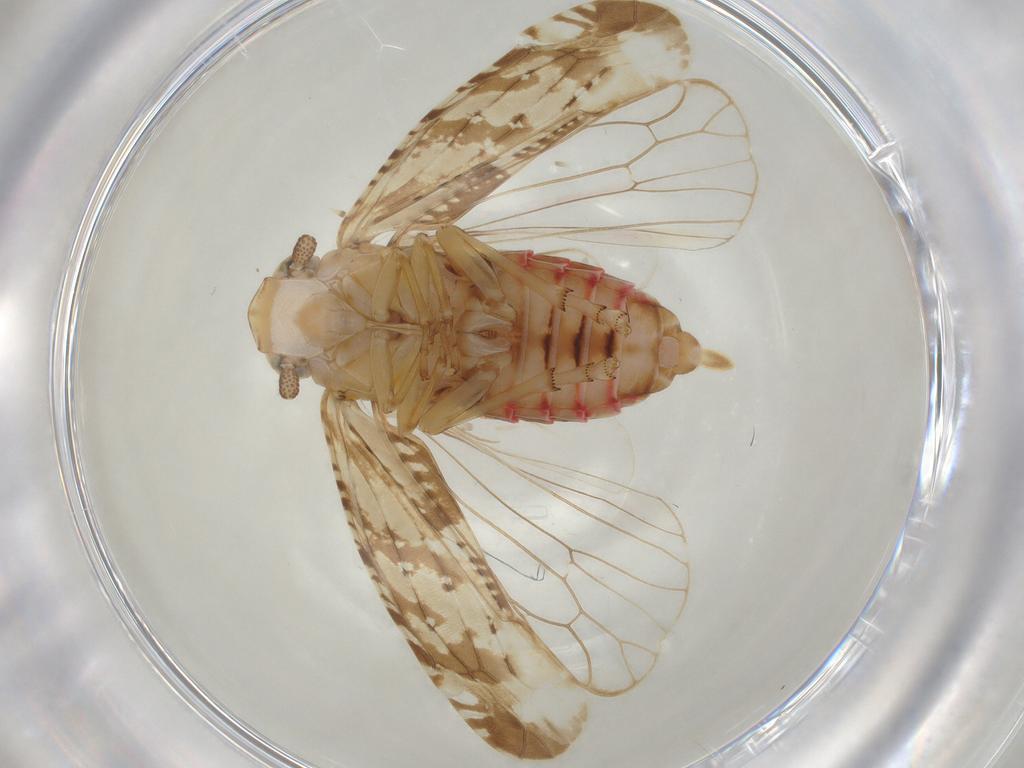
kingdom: Animalia
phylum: Arthropoda
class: Insecta
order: Hemiptera
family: Achilidae
